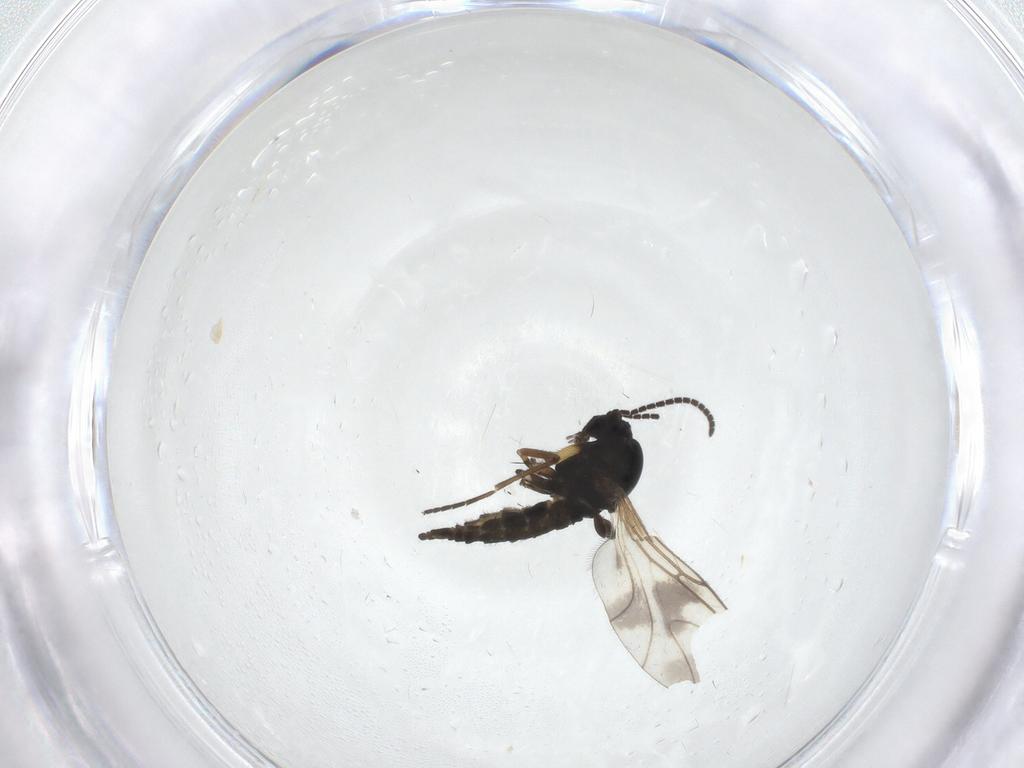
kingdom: Animalia
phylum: Arthropoda
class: Insecta
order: Diptera
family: Sciaridae
